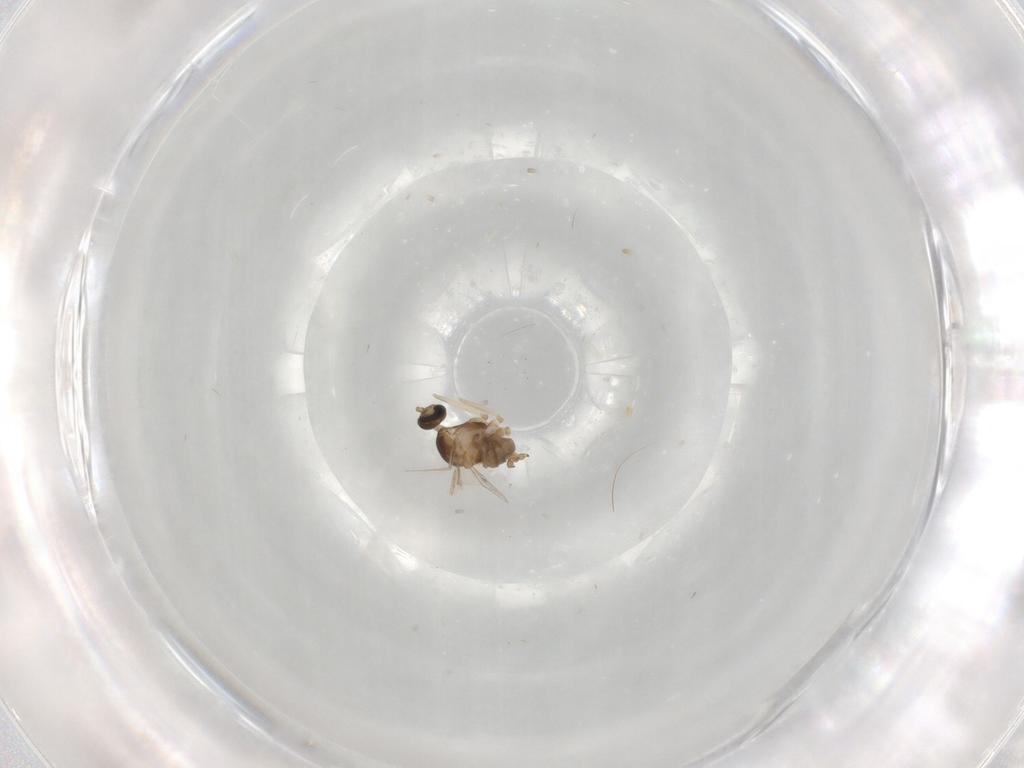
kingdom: Animalia
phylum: Arthropoda
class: Insecta
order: Diptera
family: Cecidomyiidae
